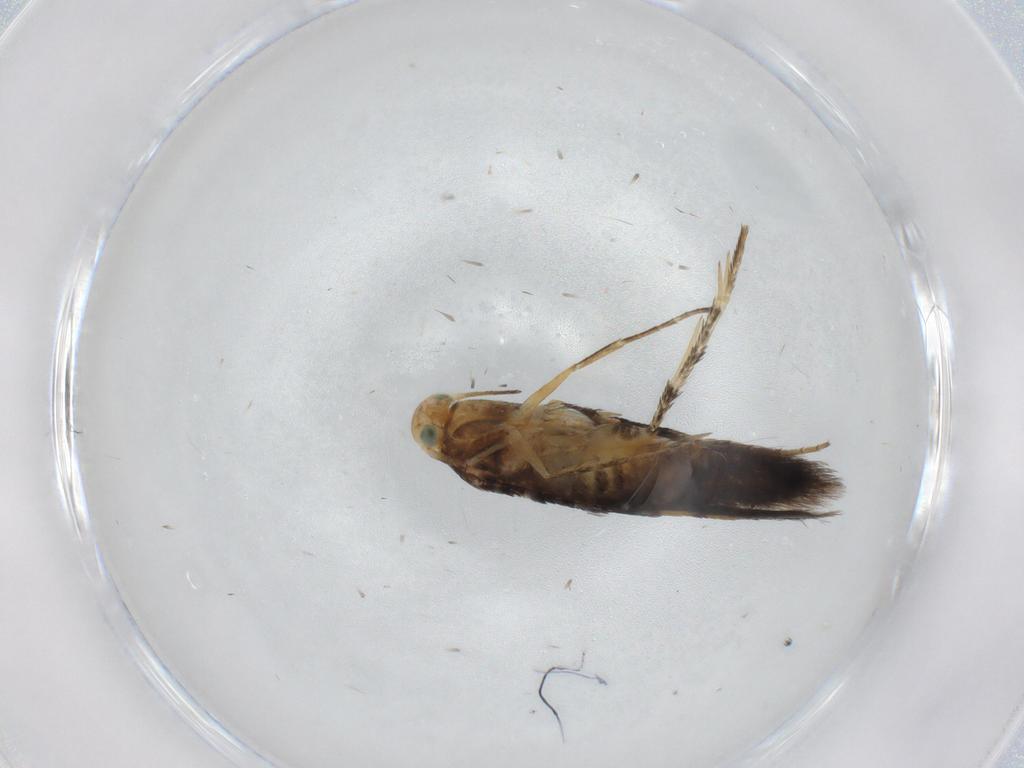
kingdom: Animalia
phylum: Arthropoda
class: Insecta
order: Lepidoptera
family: Heliodinidae
